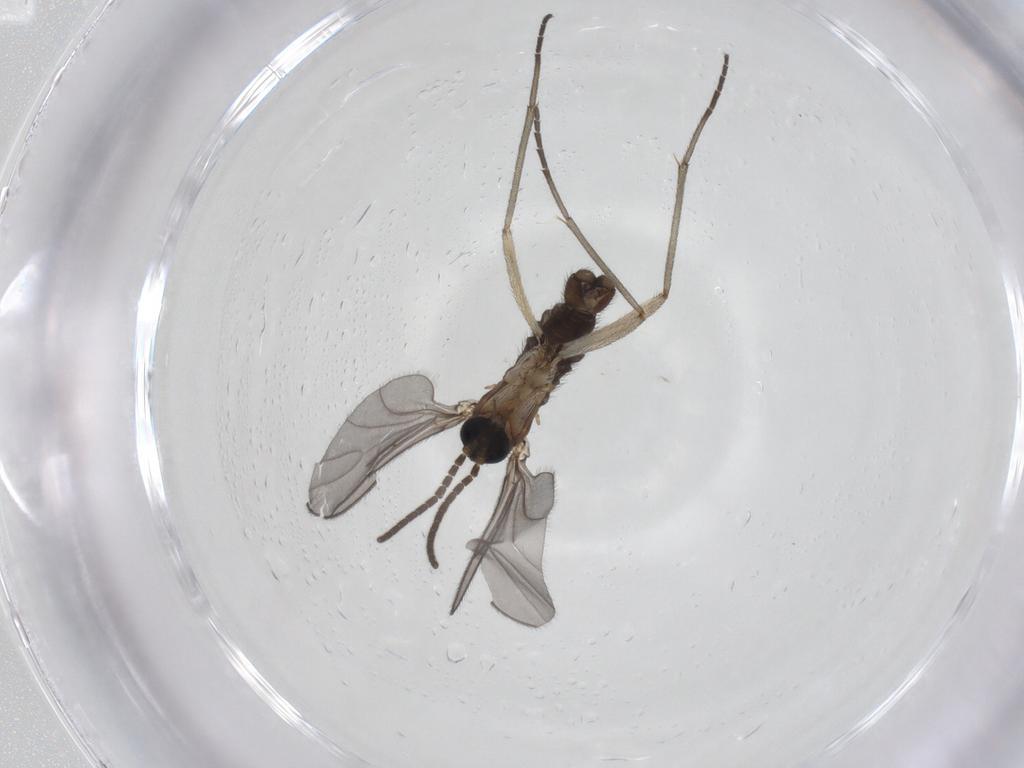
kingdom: Animalia
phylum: Arthropoda
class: Insecta
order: Diptera
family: Sciaridae
